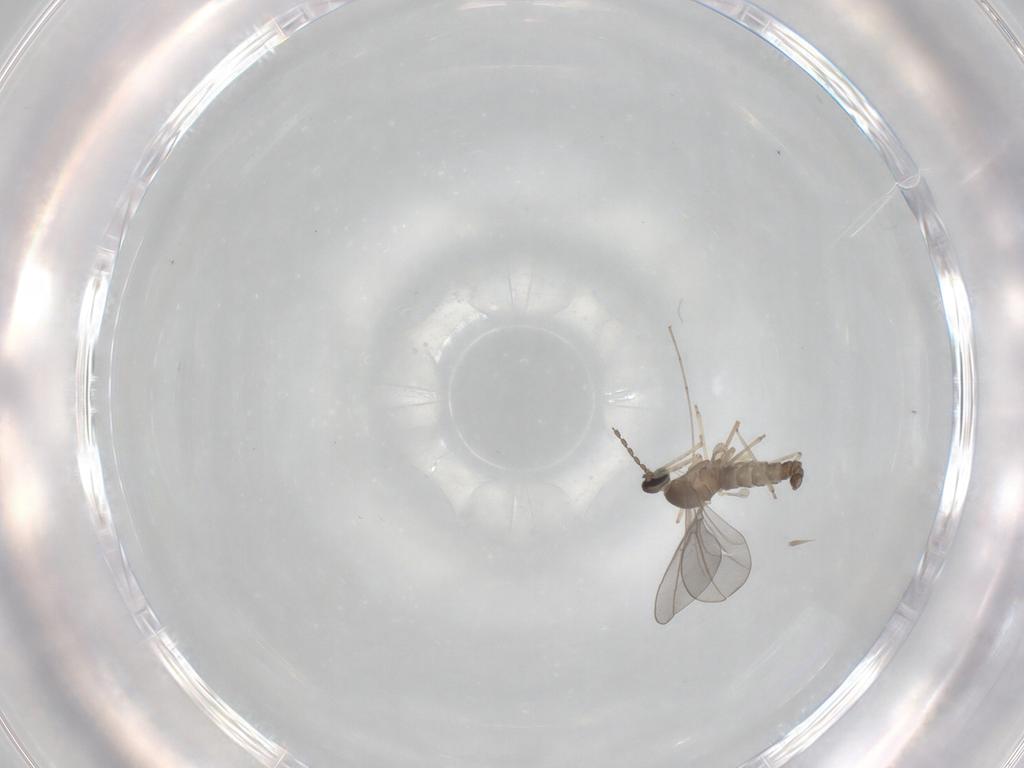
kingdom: Animalia
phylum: Arthropoda
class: Insecta
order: Diptera
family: Cecidomyiidae
